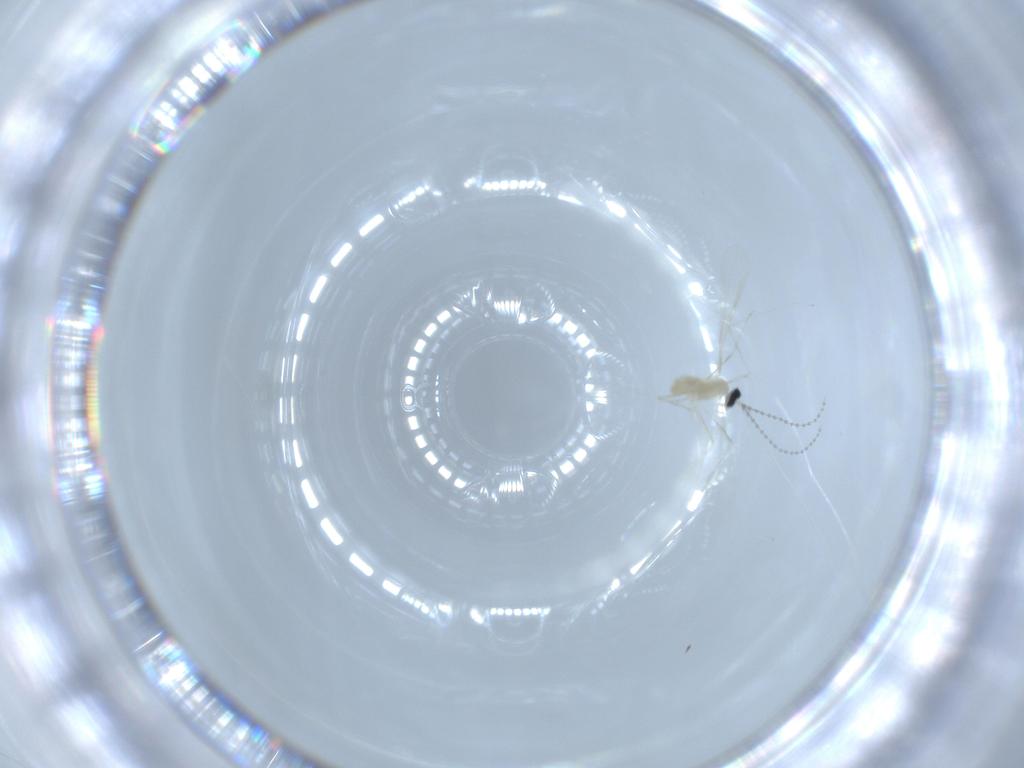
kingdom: Animalia
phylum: Arthropoda
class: Insecta
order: Diptera
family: Cecidomyiidae
